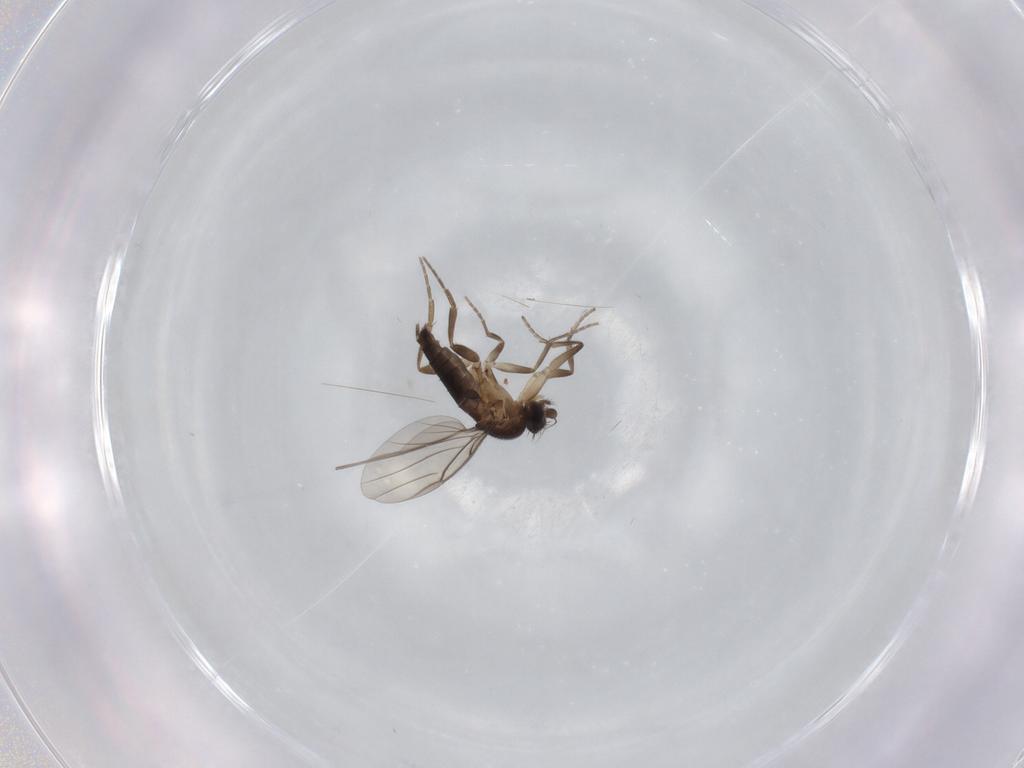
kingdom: Animalia
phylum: Arthropoda
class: Insecta
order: Diptera
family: Phoridae
